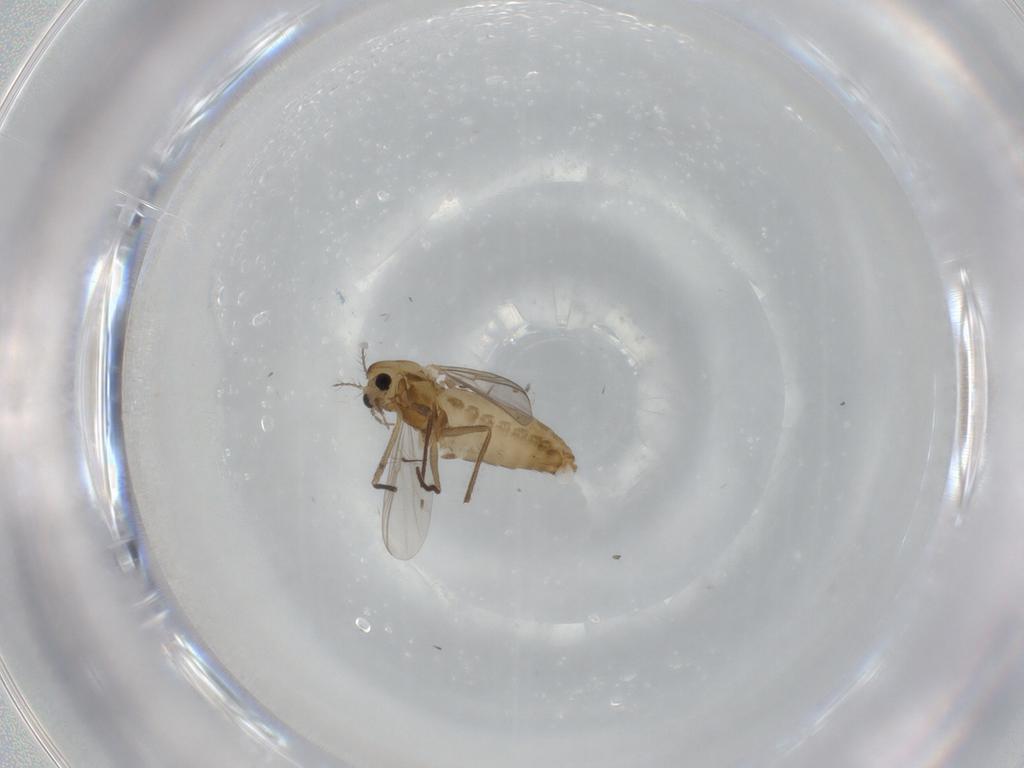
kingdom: Animalia
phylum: Arthropoda
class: Insecta
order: Diptera
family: Chironomidae
